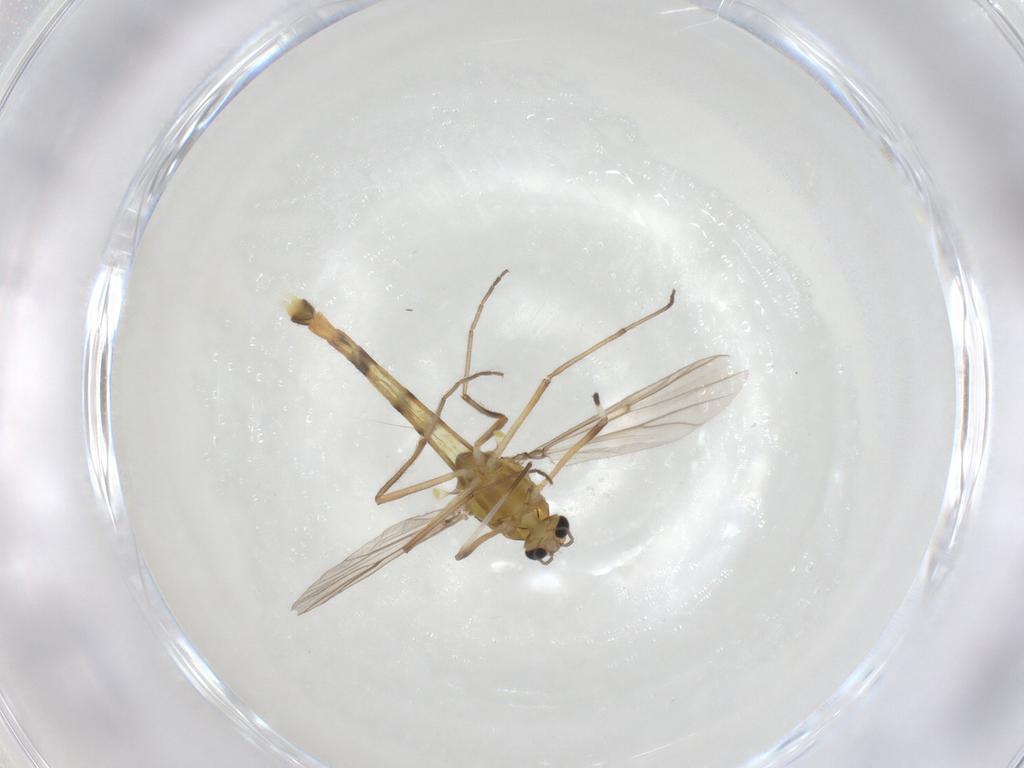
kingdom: Animalia
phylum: Arthropoda
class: Insecta
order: Diptera
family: Chironomidae
